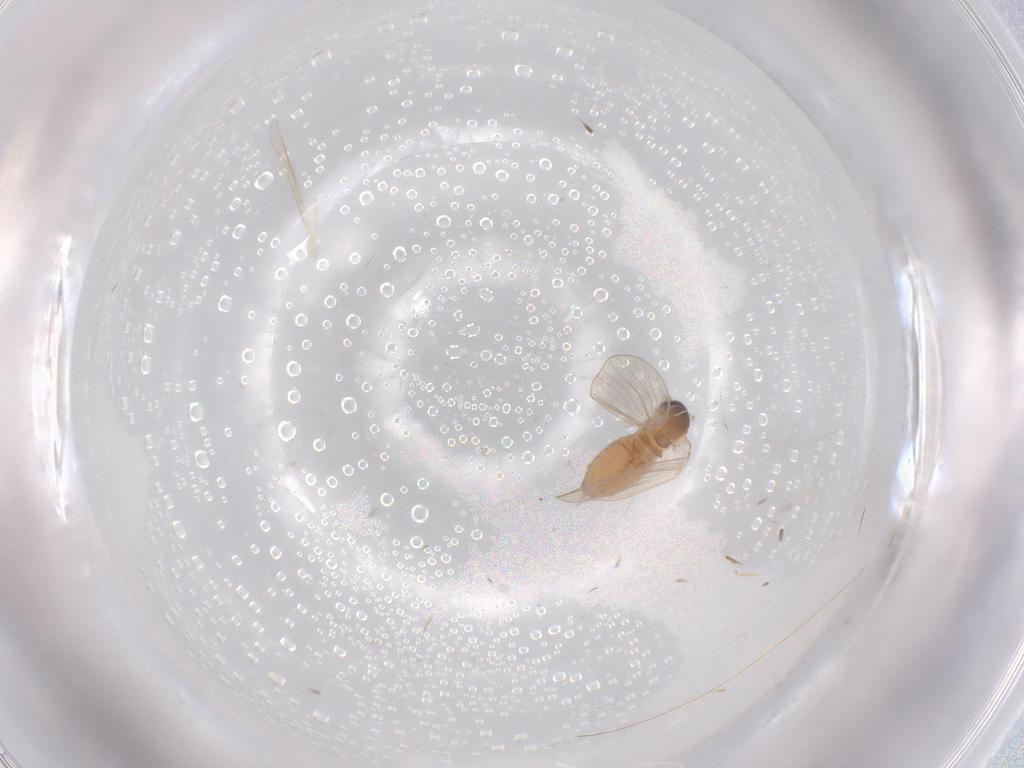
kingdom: Animalia
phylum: Arthropoda
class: Insecta
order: Diptera
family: Psychodidae
